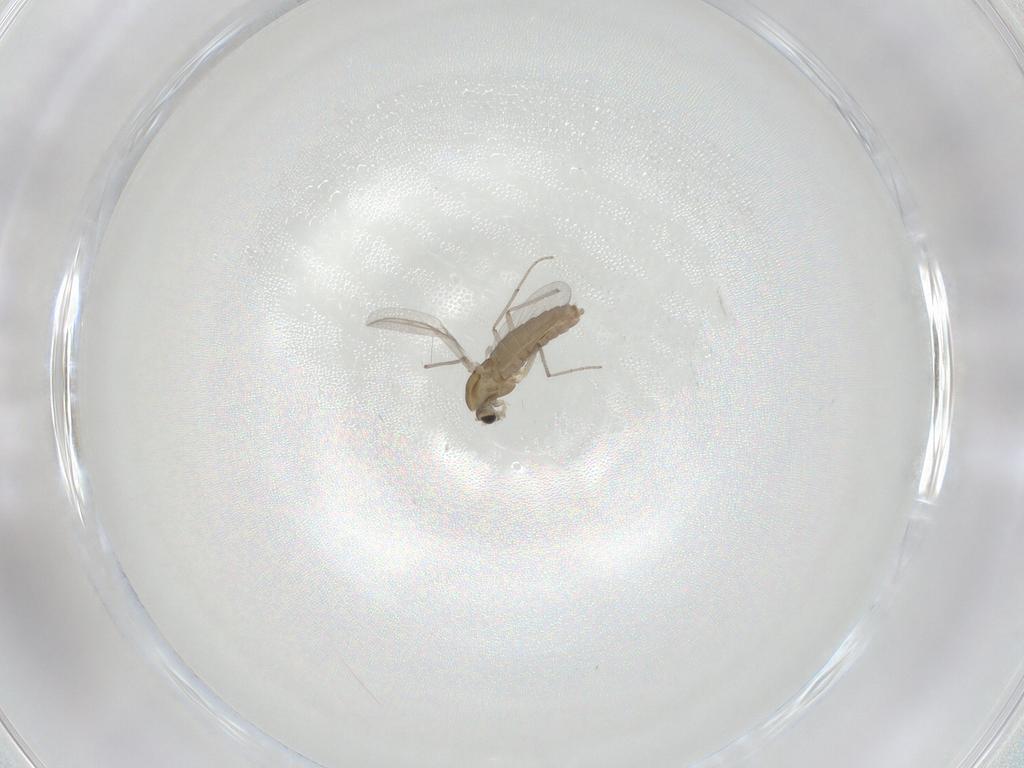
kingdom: Animalia
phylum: Arthropoda
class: Insecta
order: Diptera
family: Chironomidae
